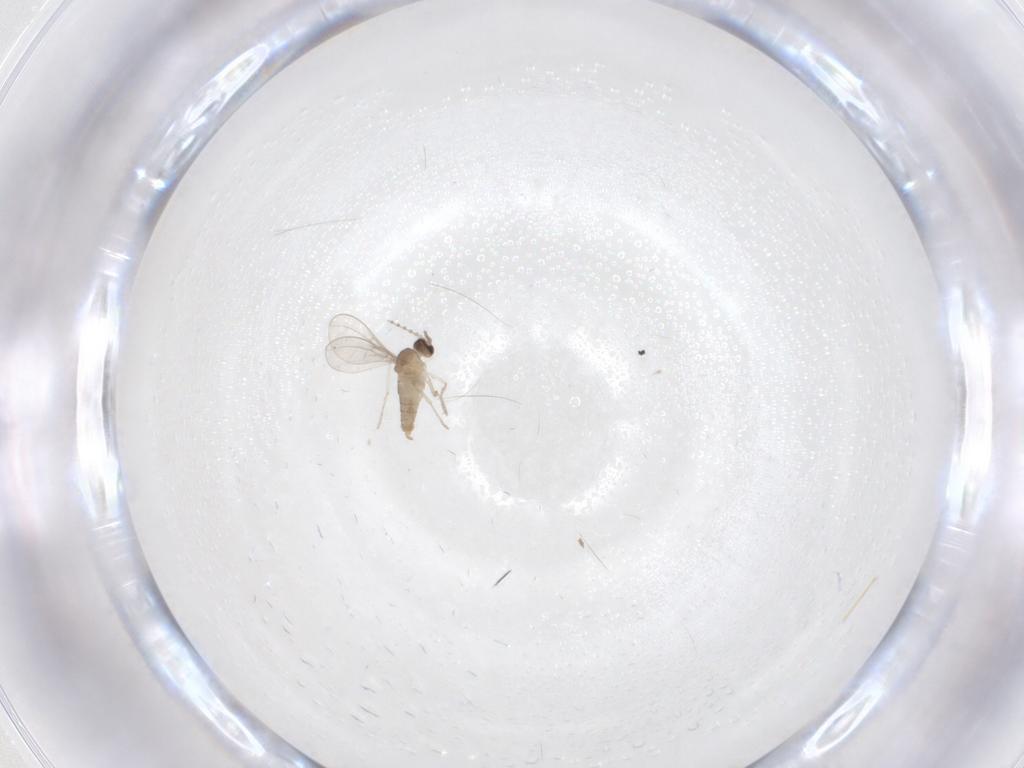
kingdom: Animalia
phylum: Arthropoda
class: Insecta
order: Diptera
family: Cecidomyiidae
